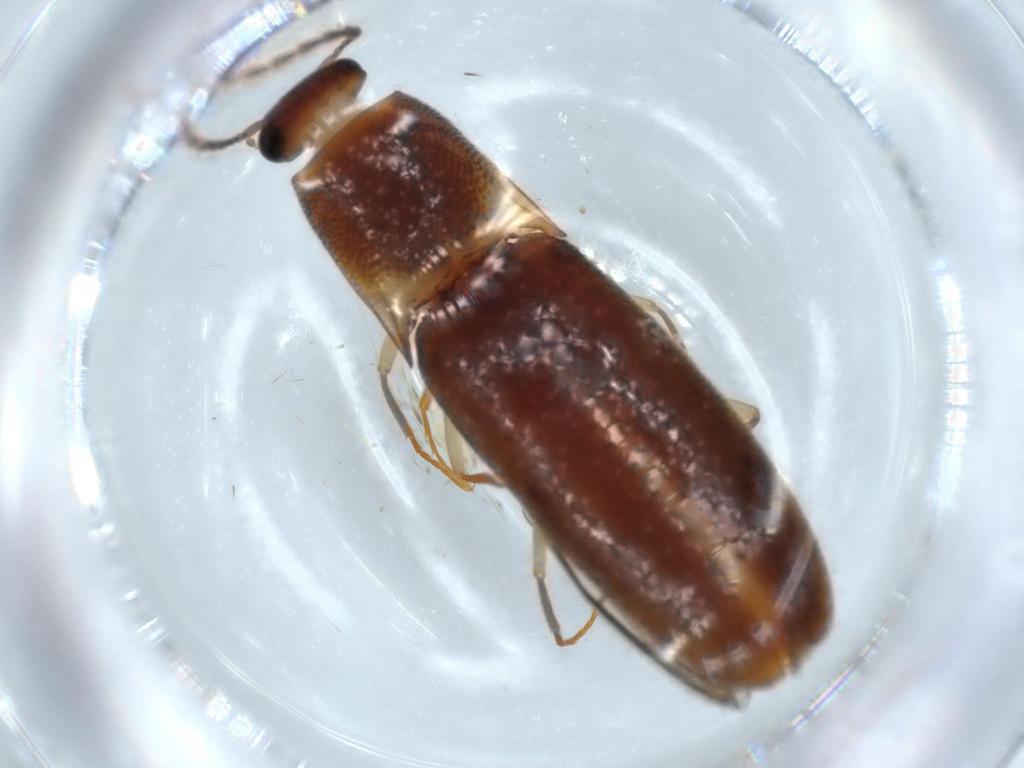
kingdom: Animalia
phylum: Arthropoda
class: Insecta
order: Coleoptera
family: Elateridae
